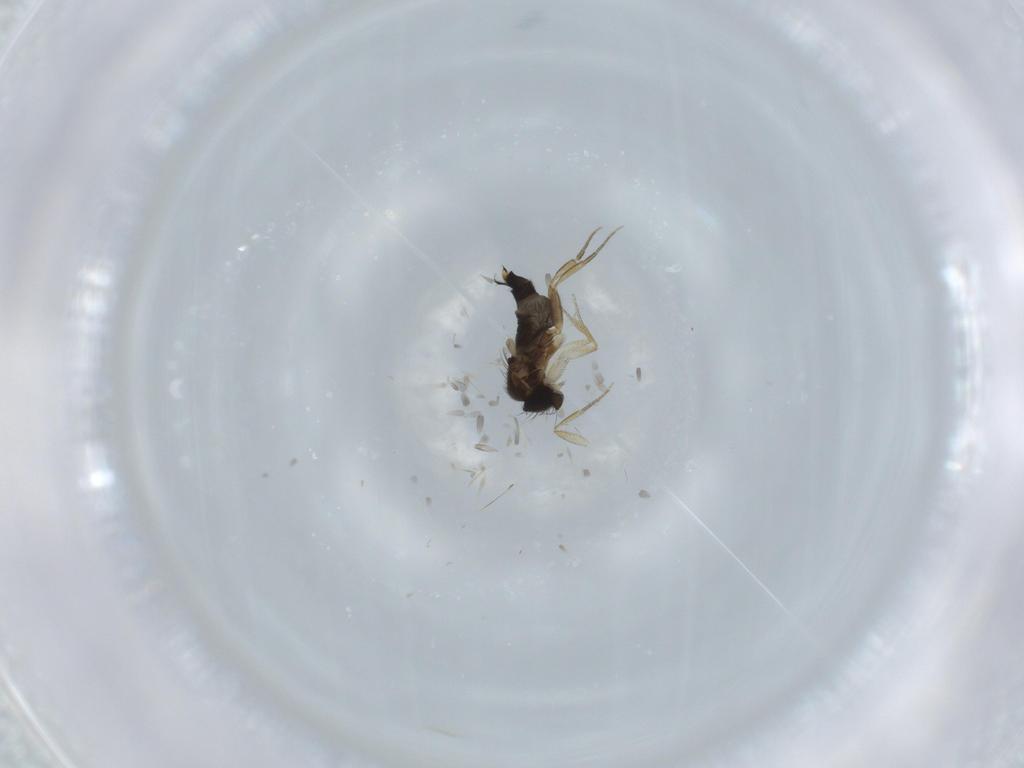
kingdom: Animalia
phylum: Arthropoda
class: Insecta
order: Diptera
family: Phoridae
